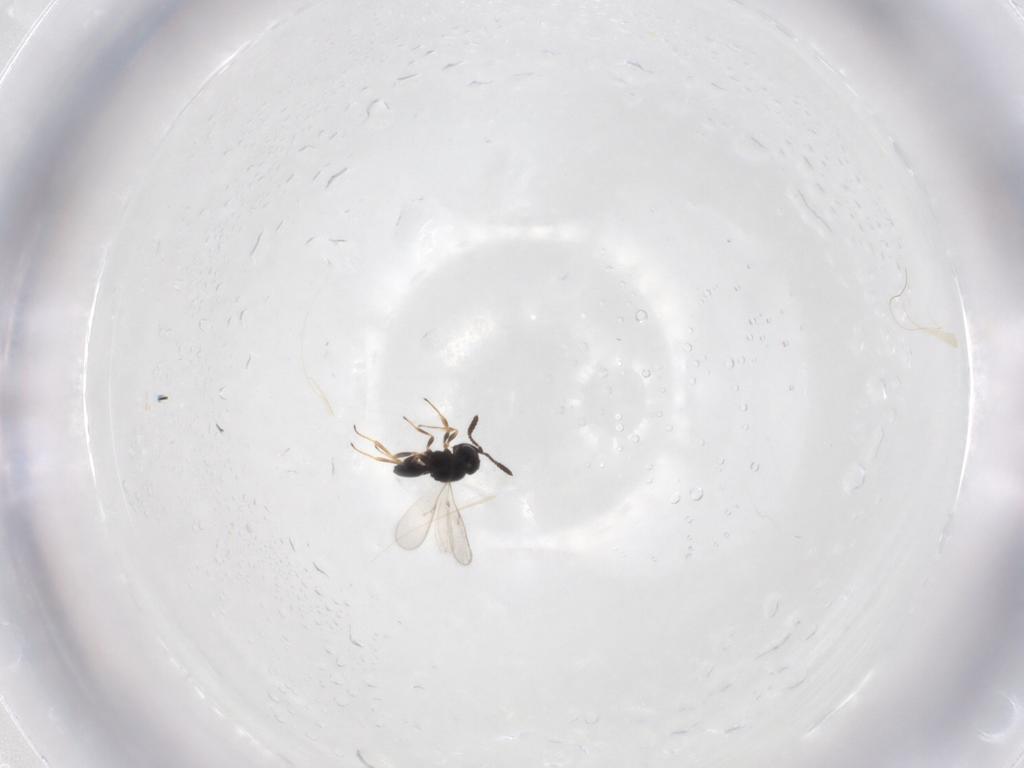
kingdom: Animalia
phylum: Arthropoda
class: Insecta
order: Hymenoptera
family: Scelionidae
